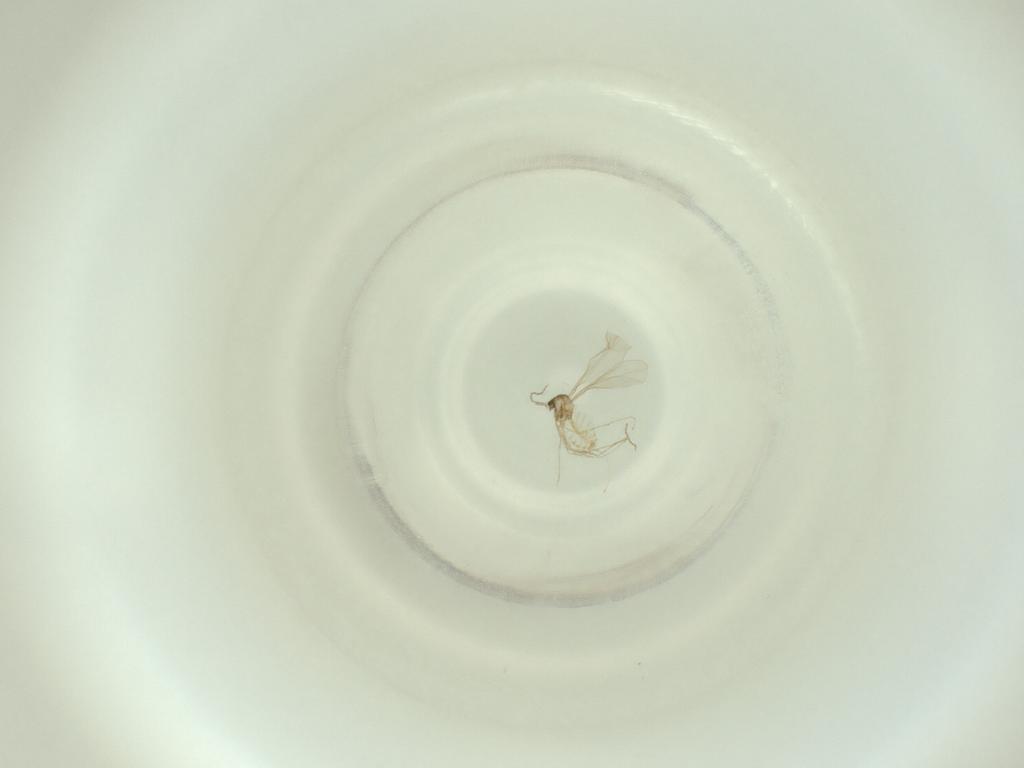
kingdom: Animalia
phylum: Arthropoda
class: Insecta
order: Diptera
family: Cecidomyiidae
